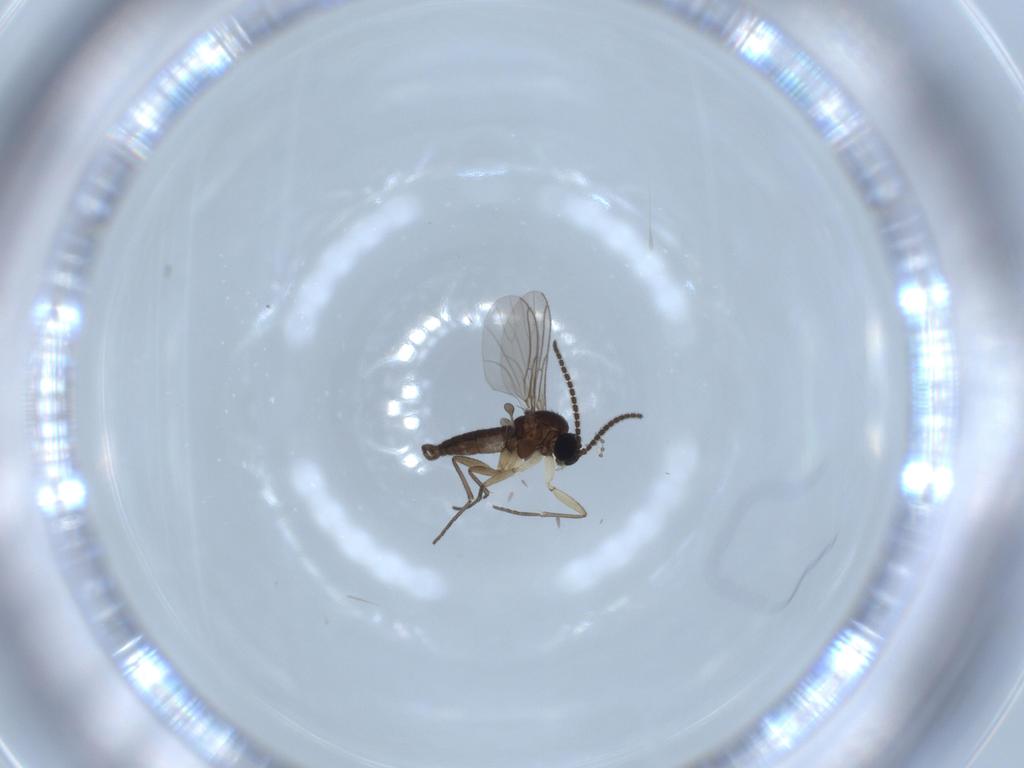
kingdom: Animalia
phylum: Arthropoda
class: Insecta
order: Diptera
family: Sciaridae
